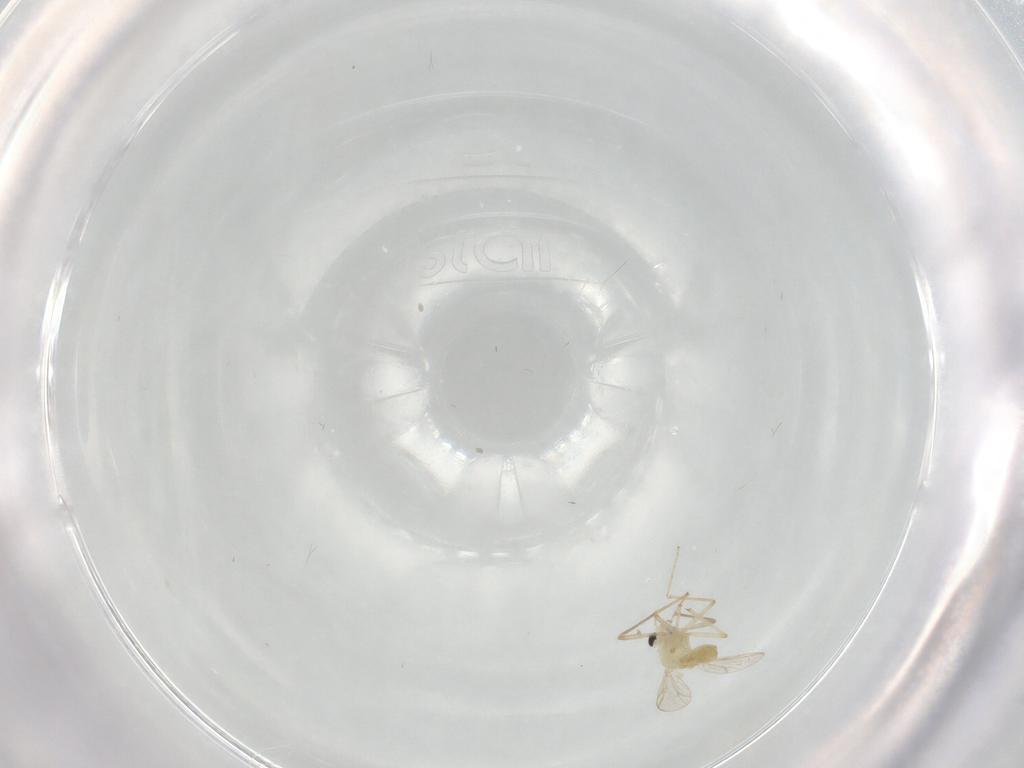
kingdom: Animalia
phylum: Arthropoda
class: Insecta
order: Diptera
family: Chironomidae
